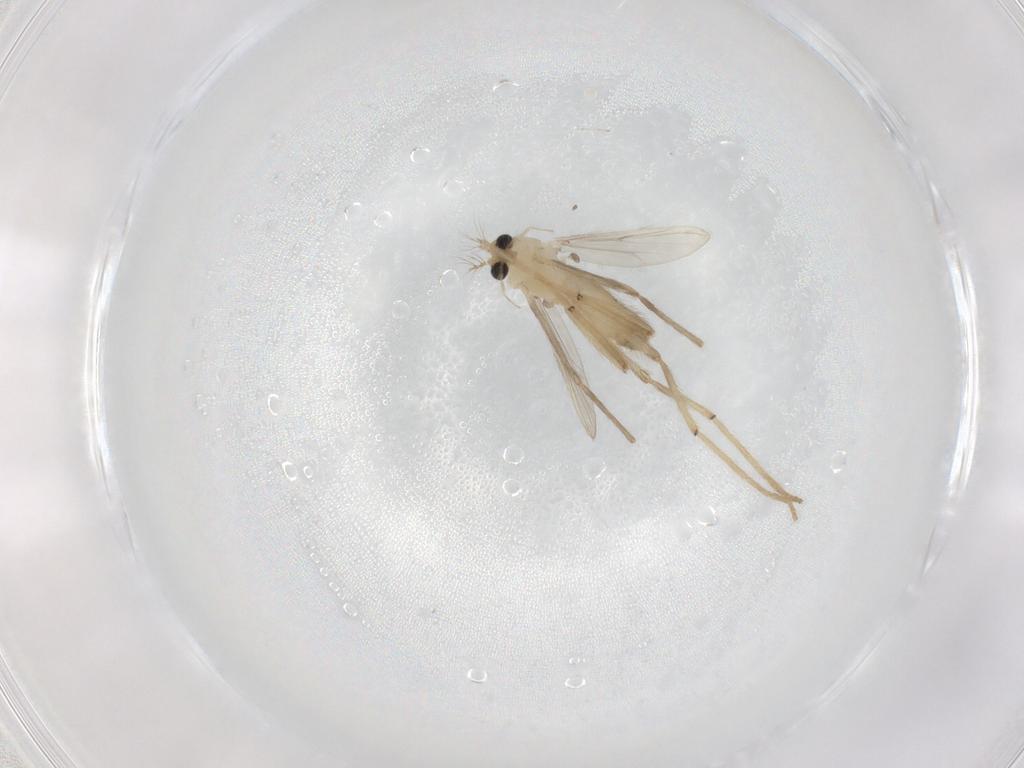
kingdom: Animalia
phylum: Arthropoda
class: Insecta
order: Diptera
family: Chironomidae
